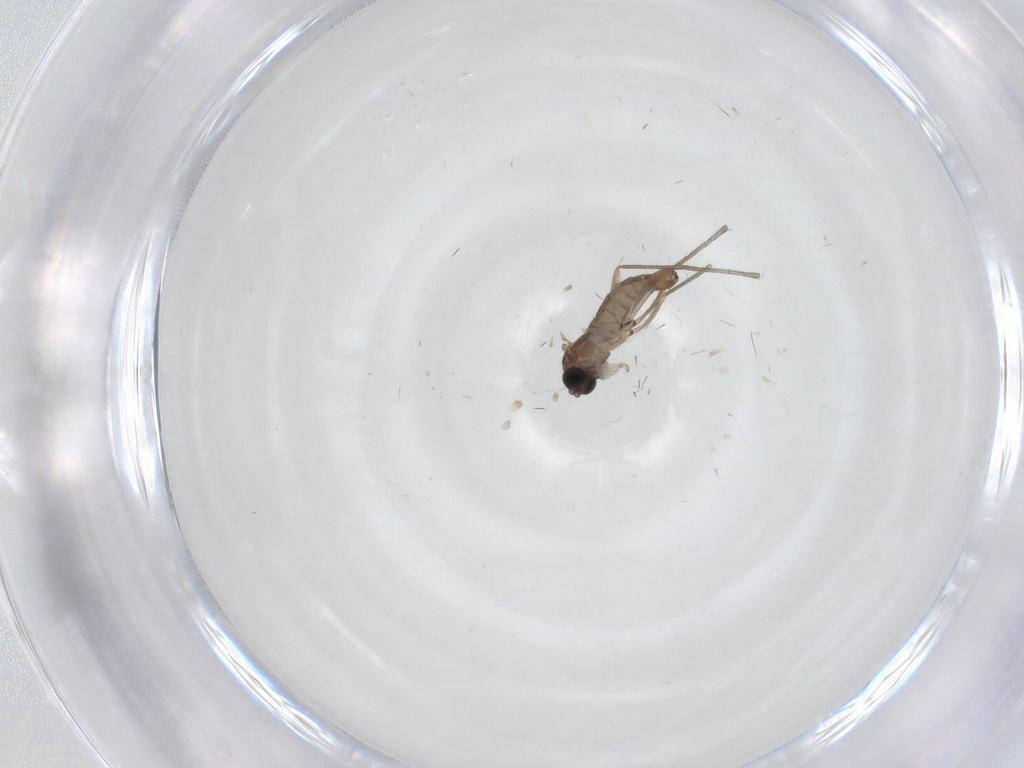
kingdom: Animalia
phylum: Arthropoda
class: Insecta
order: Diptera
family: Sciaridae
